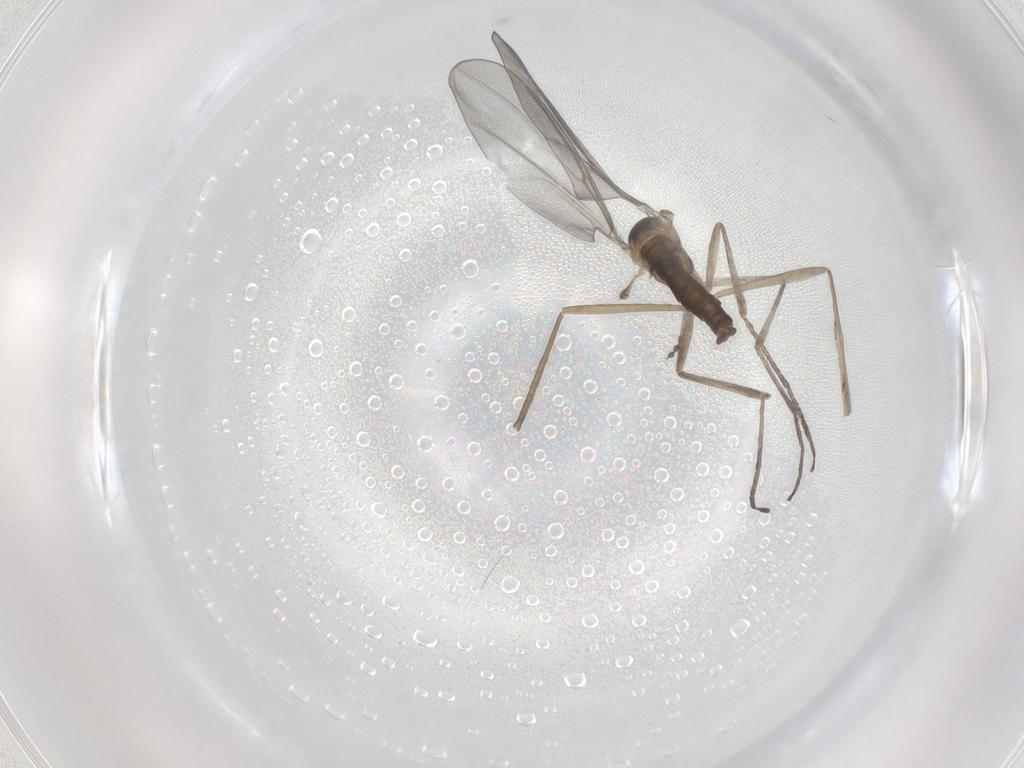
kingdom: Animalia
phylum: Arthropoda
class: Insecta
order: Diptera
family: Cecidomyiidae
